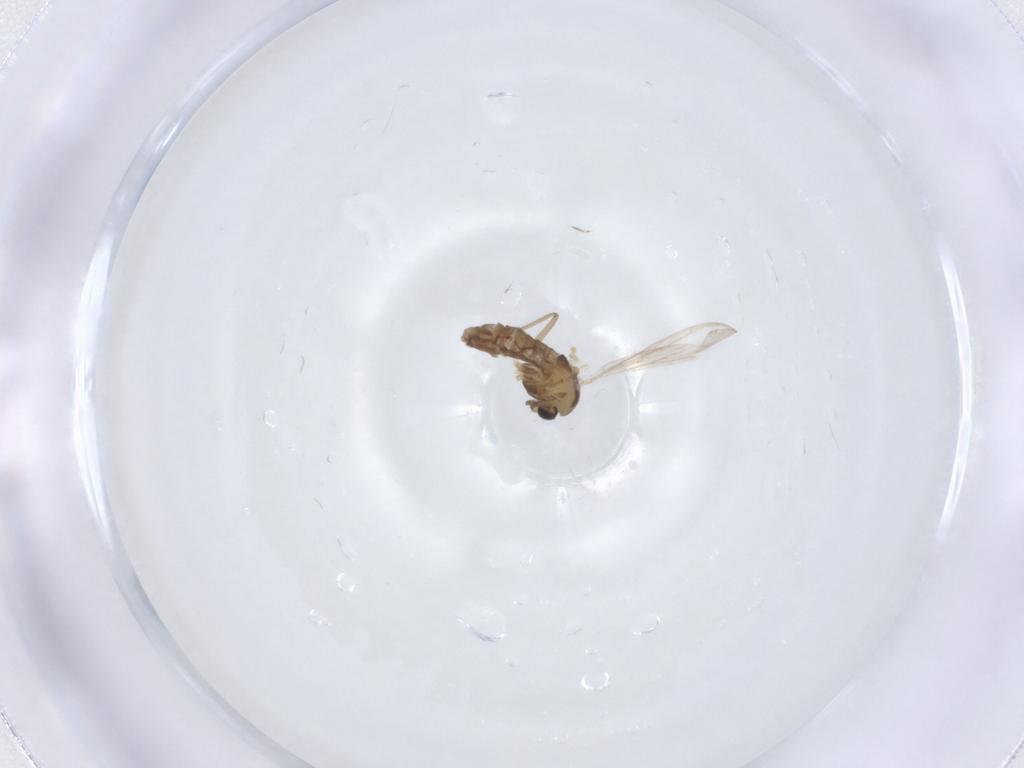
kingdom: Animalia
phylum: Arthropoda
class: Insecta
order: Diptera
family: Chironomidae
